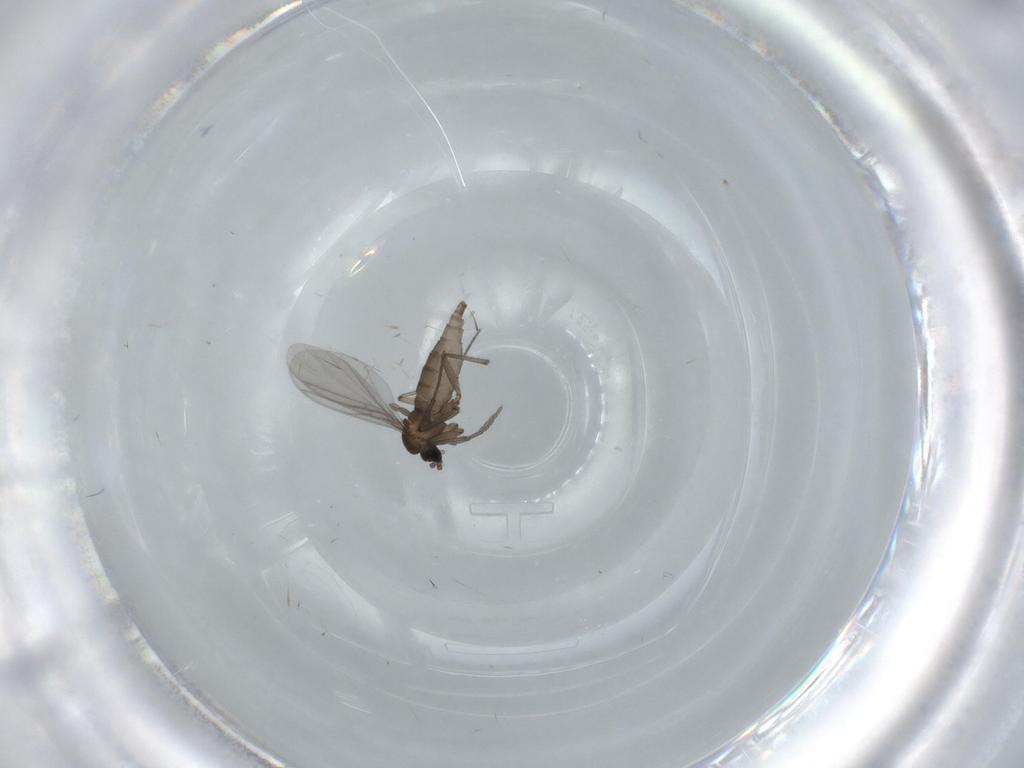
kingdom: Animalia
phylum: Arthropoda
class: Insecta
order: Diptera
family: Sciaridae
